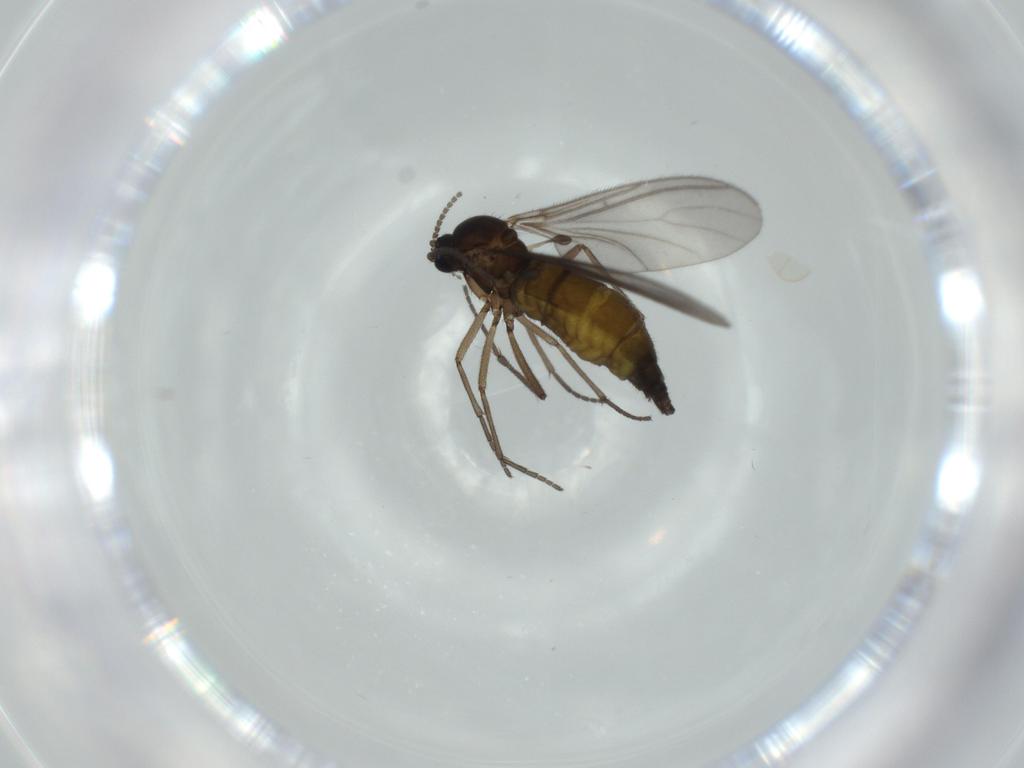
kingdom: Animalia
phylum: Arthropoda
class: Insecta
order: Diptera
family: Sciaridae
